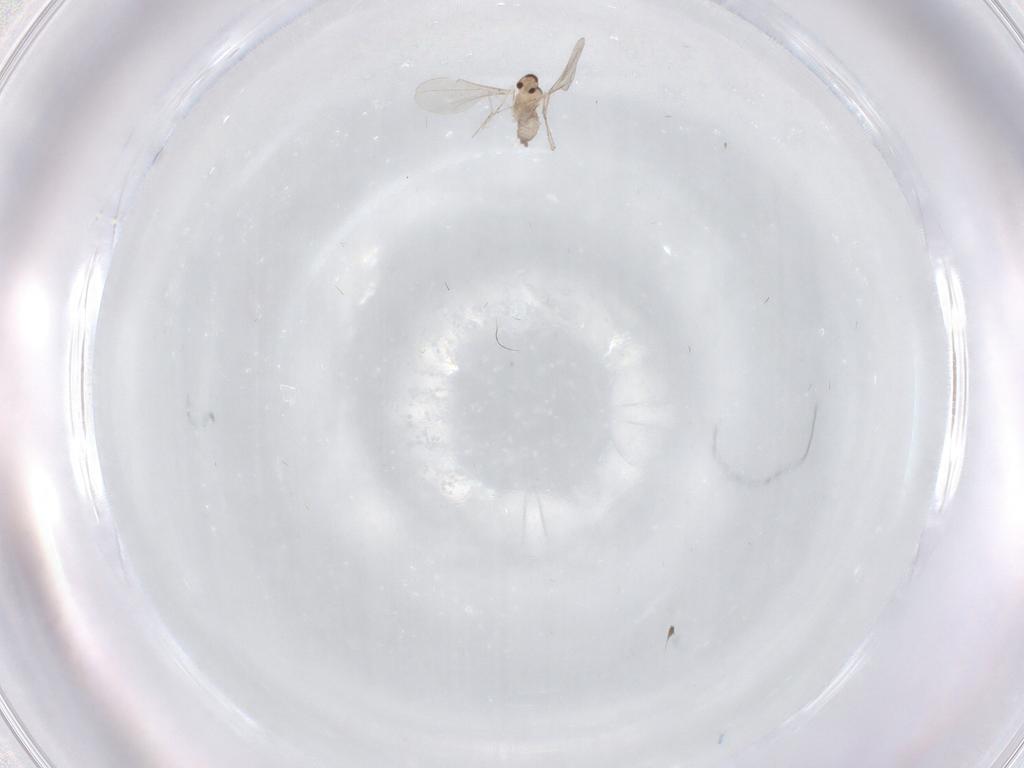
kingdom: Animalia
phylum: Arthropoda
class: Insecta
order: Diptera
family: Cecidomyiidae
